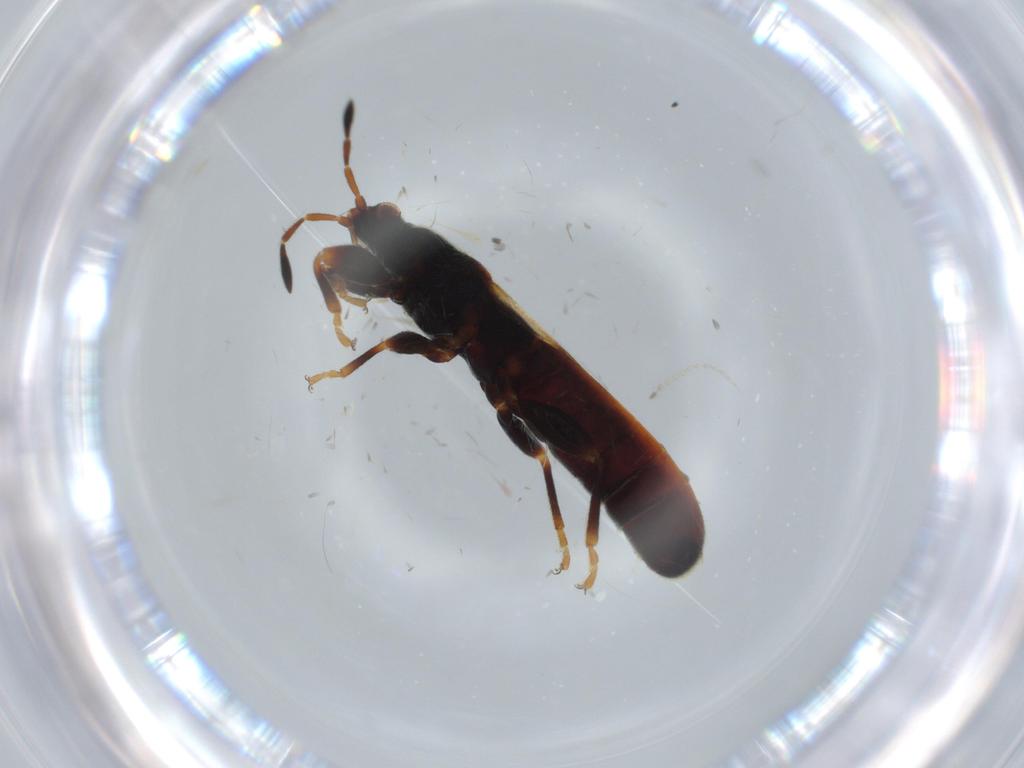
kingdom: Animalia
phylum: Arthropoda
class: Insecta
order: Hemiptera
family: Blissidae
